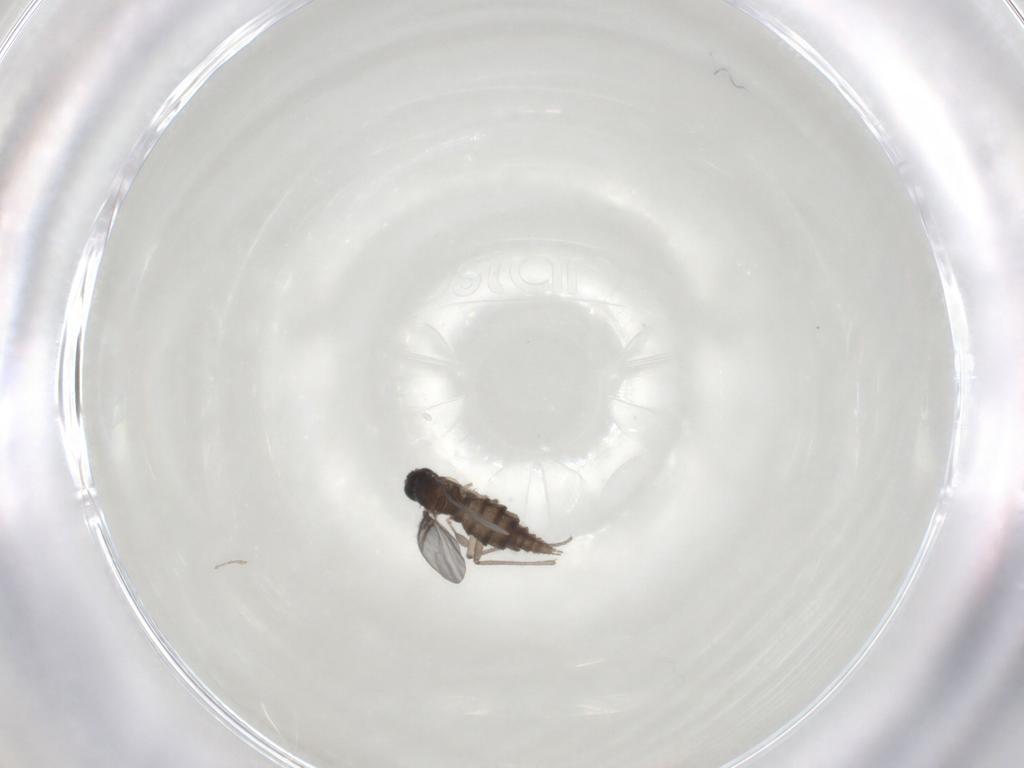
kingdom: Animalia
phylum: Arthropoda
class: Insecta
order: Diptera
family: Sciaridae
